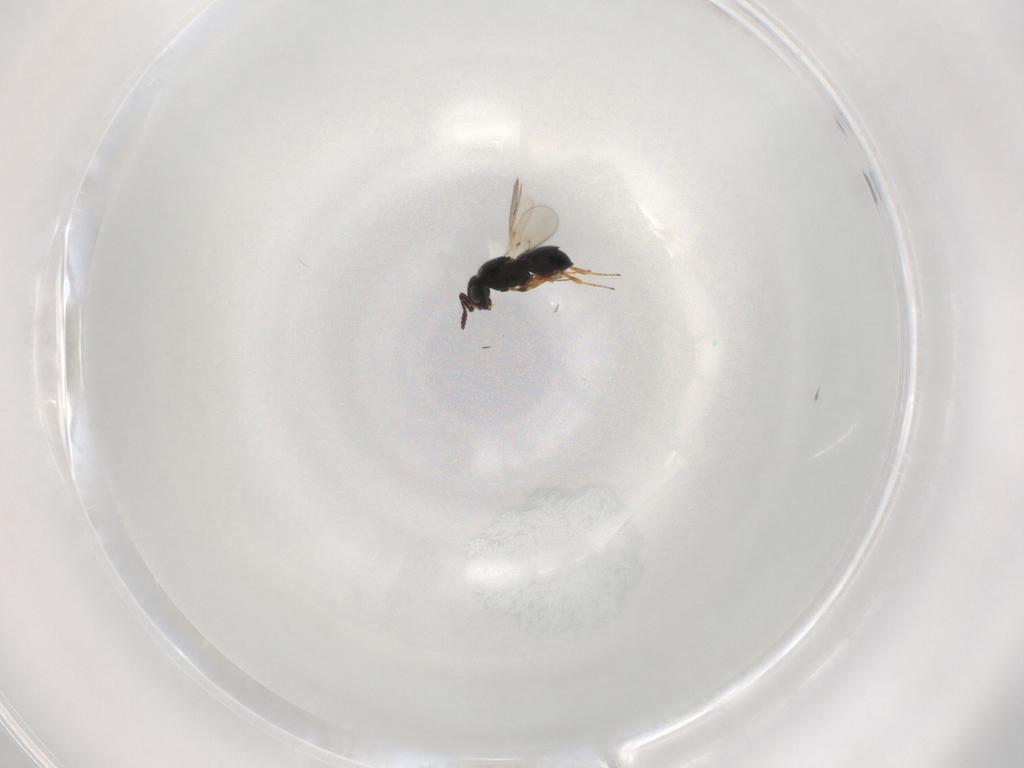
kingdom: Animalia
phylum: Arthropoda
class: Insecta
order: Hymenoptera
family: Scelionidae
